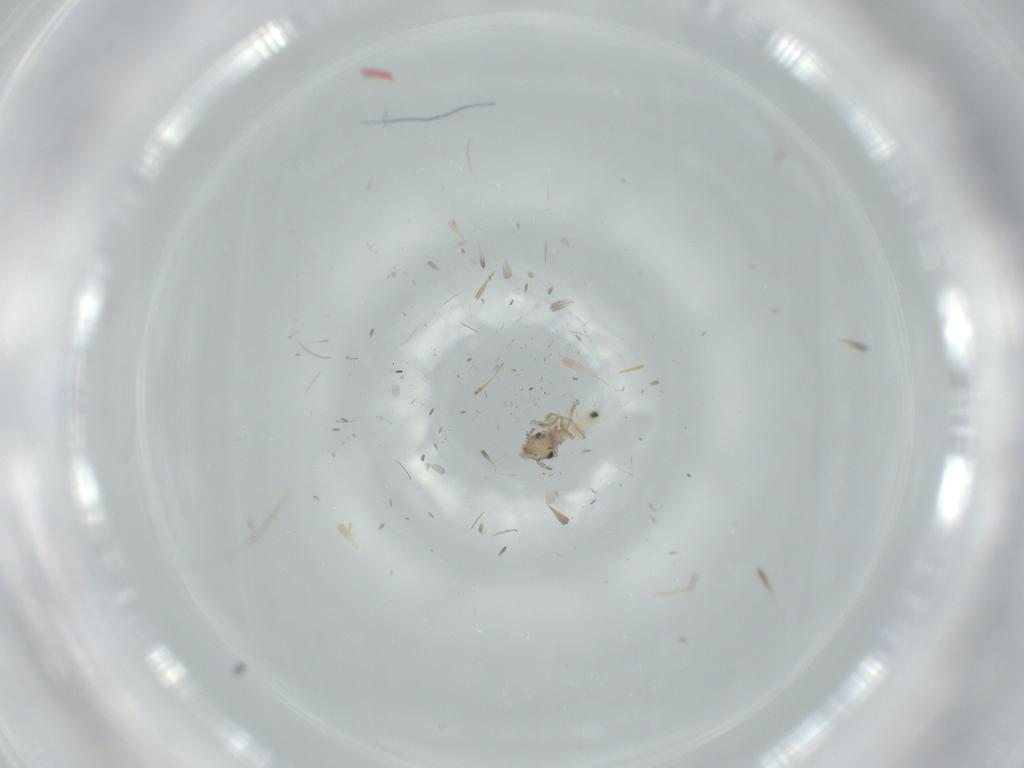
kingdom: Animalia
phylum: Arthropoda
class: Insecta
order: Psocodea
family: Lepidopsocidae
